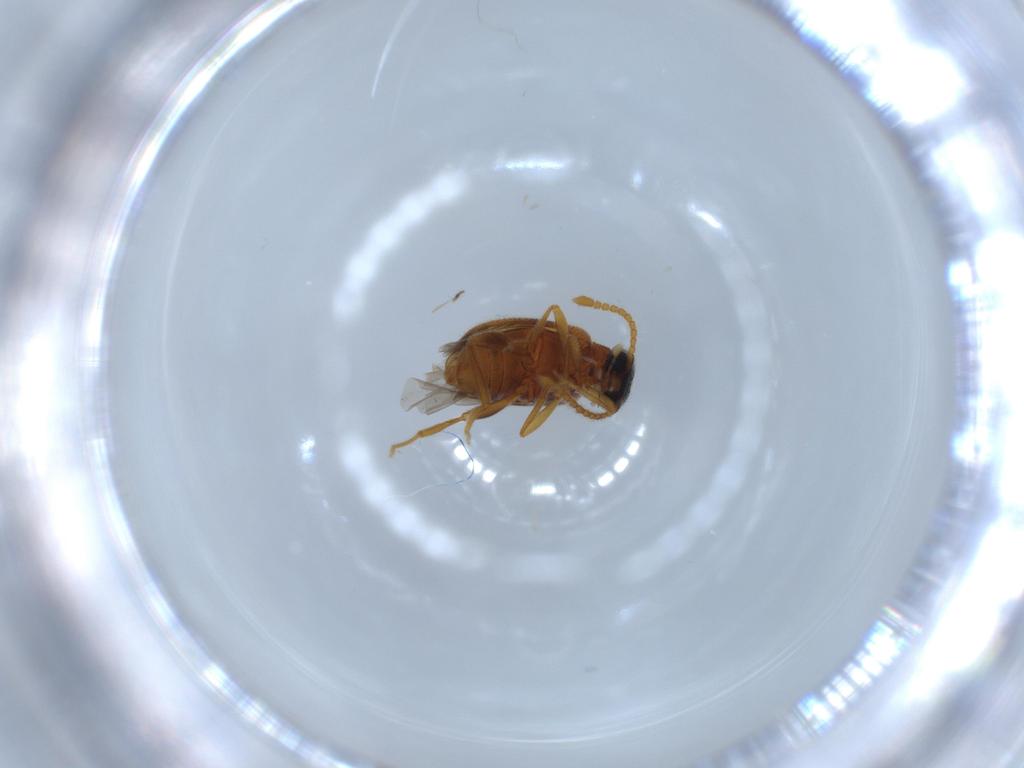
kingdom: Animalia
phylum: Arthropoda
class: Insecta
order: Coleoptera
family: Aderidae
